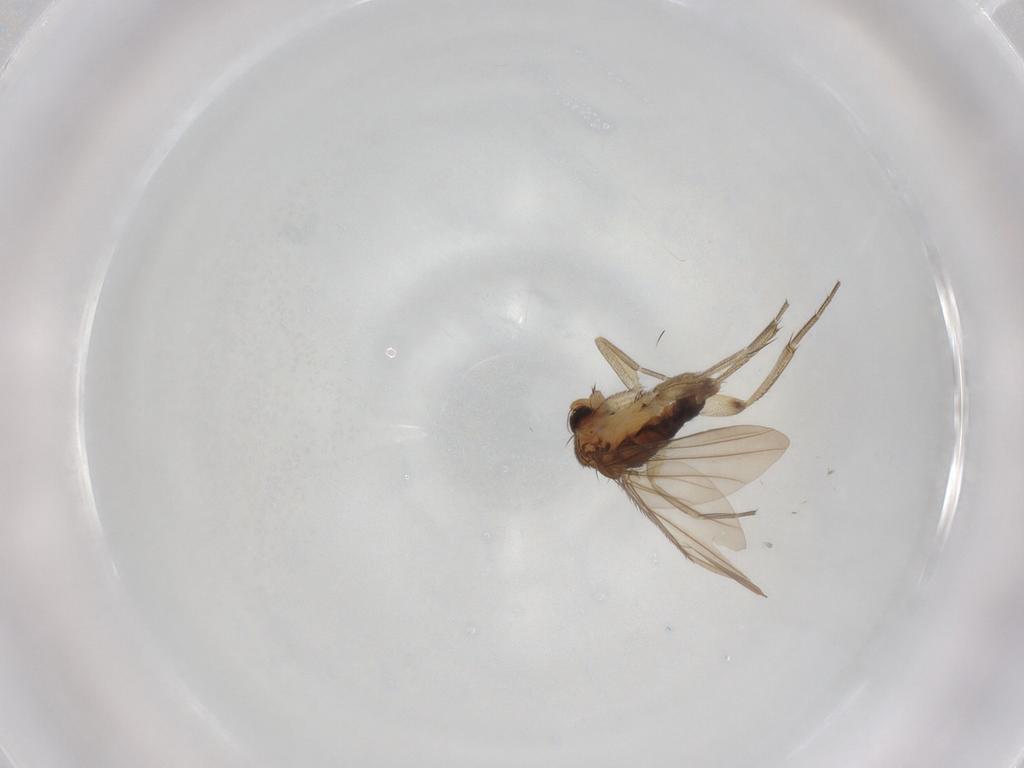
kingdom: Animalia
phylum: Arthropoda
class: Insecta
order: Diptera
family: Phoridae
